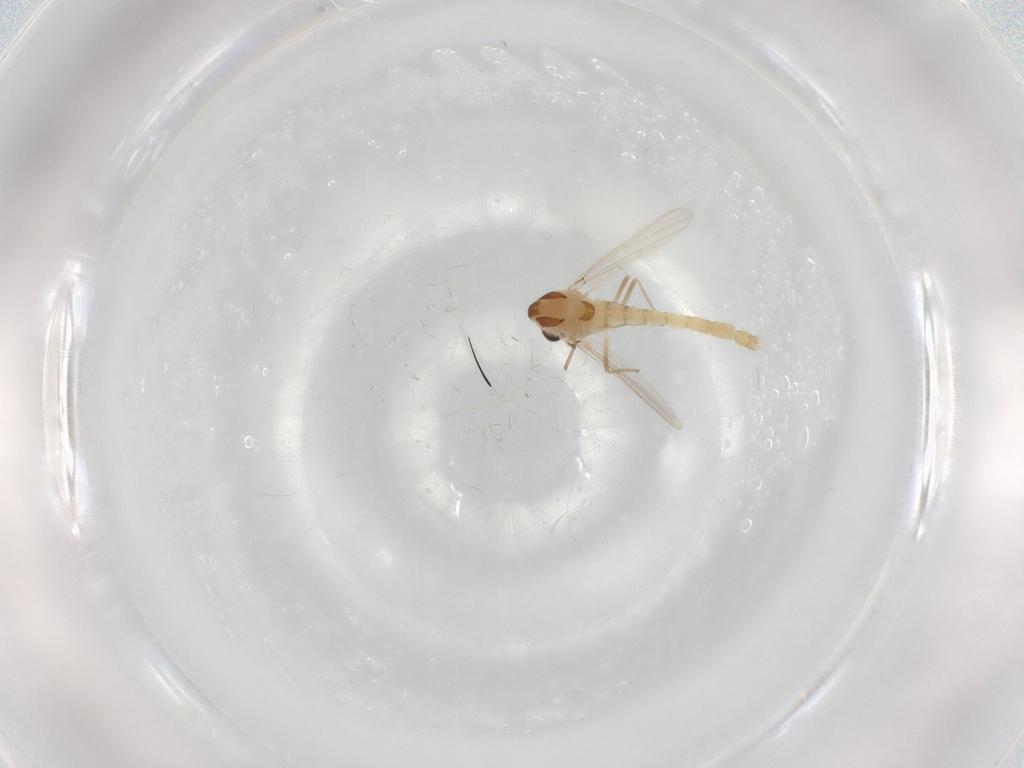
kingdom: Animalia
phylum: Arthropoda
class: Insecta
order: Diptera
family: Chironomidae
